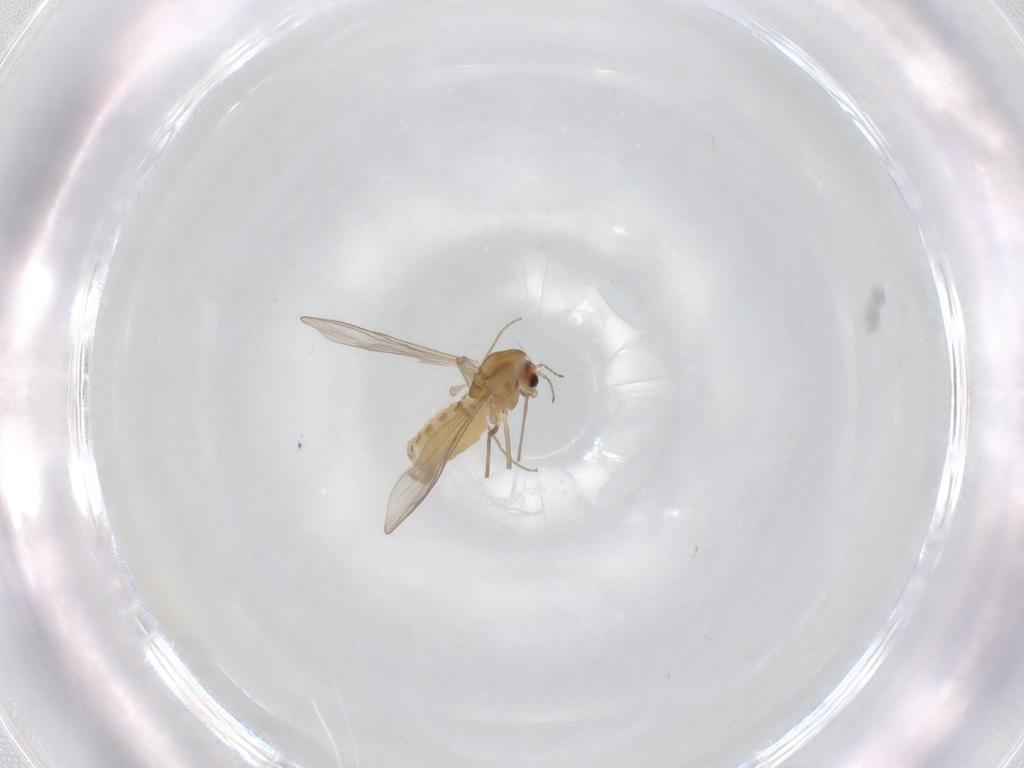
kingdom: Animalia
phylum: Arthropoda
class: Insecta
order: Diptera
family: Chironomidae
